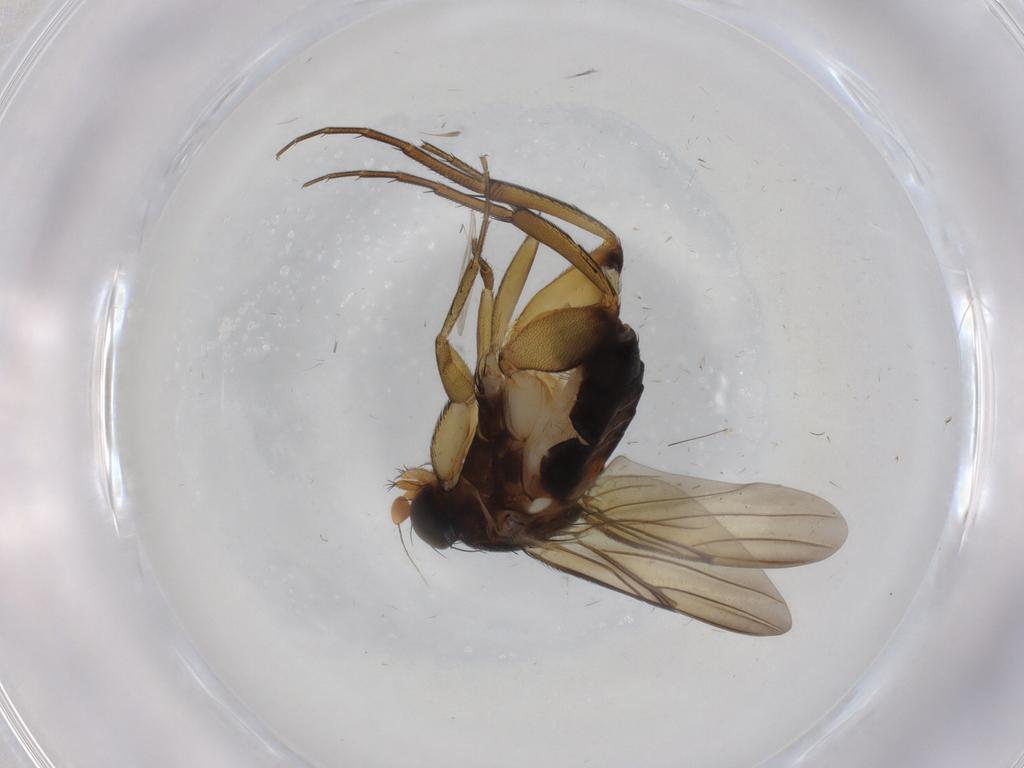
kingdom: Animalia
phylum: Arthropoda
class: Insecta
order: Diptera
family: Phoridae
